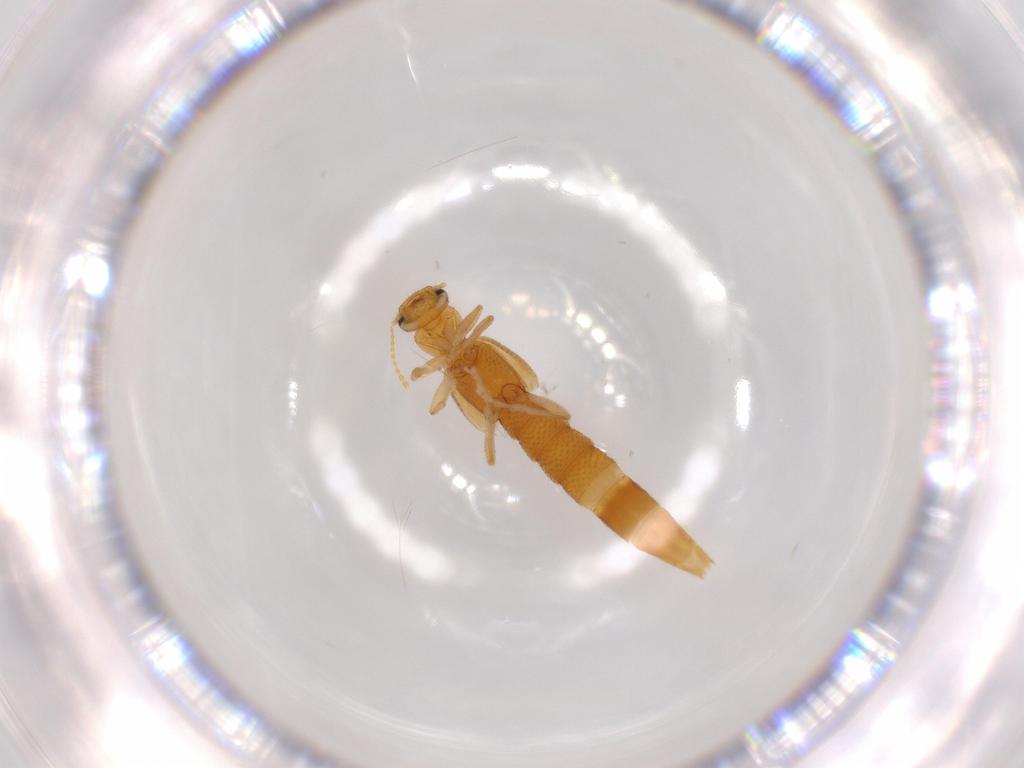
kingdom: Animalia
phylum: Arthropoda
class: Insecta
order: Coleoptera
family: Staphylinidae
